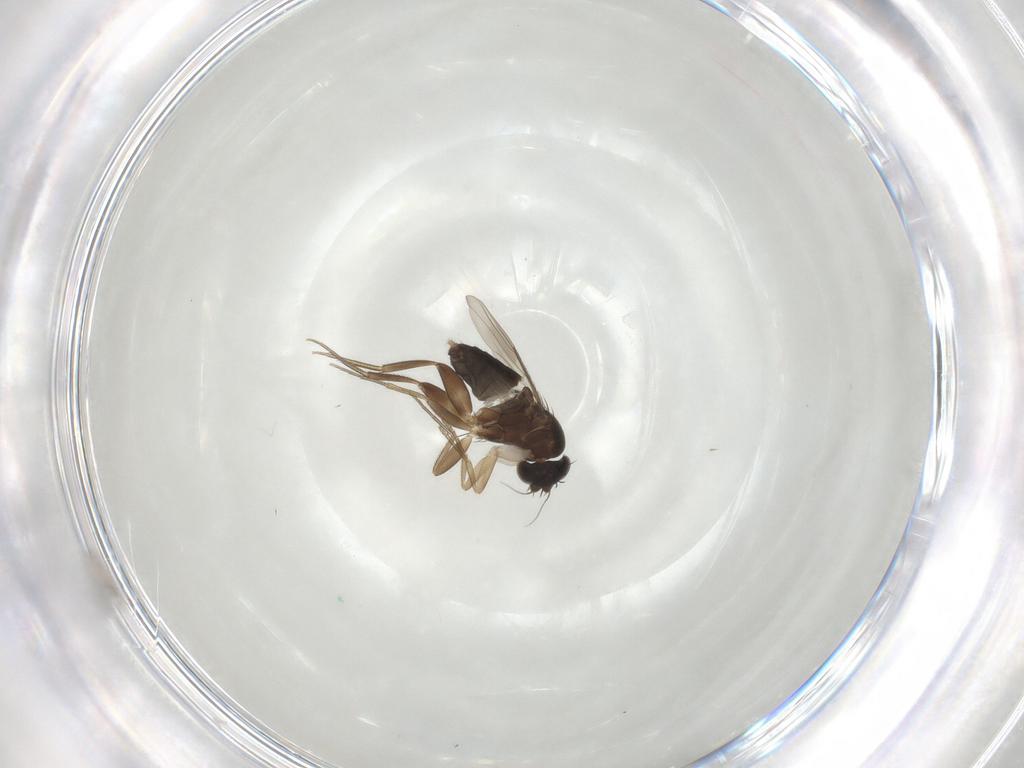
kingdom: Animalia
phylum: Arthropoda
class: Insecta
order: Diptera
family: Phoridae
